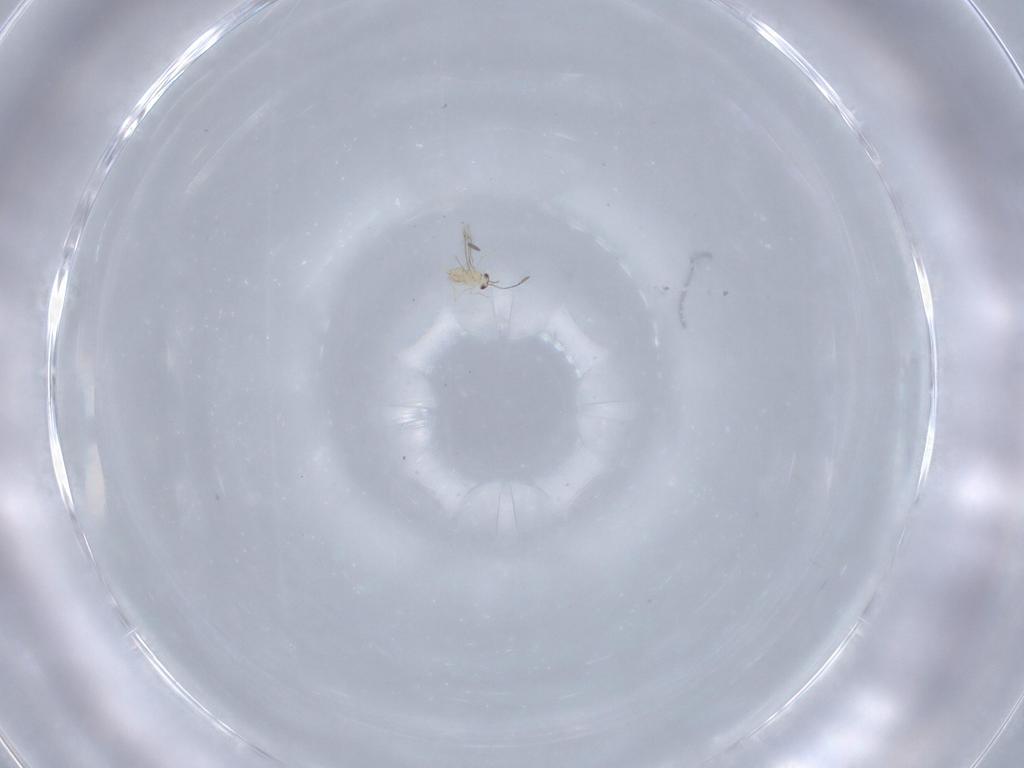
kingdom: Animalia
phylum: Arthropoda
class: Insecta
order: Hymenoptera
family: Mymaridae
